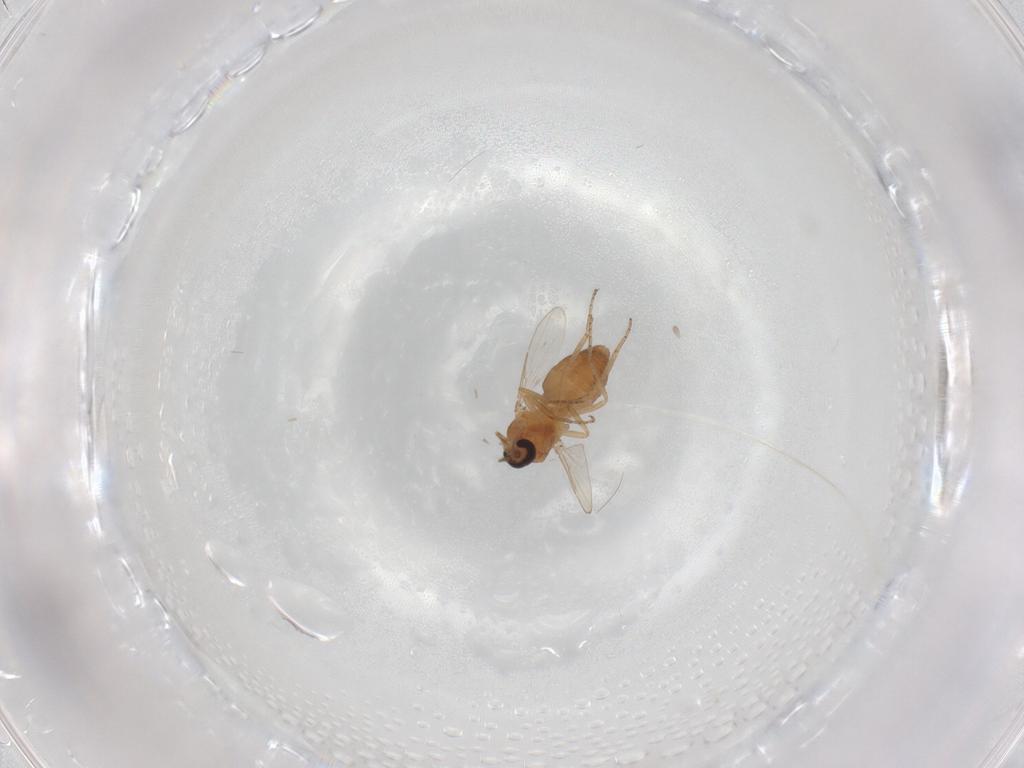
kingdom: Animalia
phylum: Arthropoda
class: Insecta
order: Diptera
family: Ceratopogonidae
